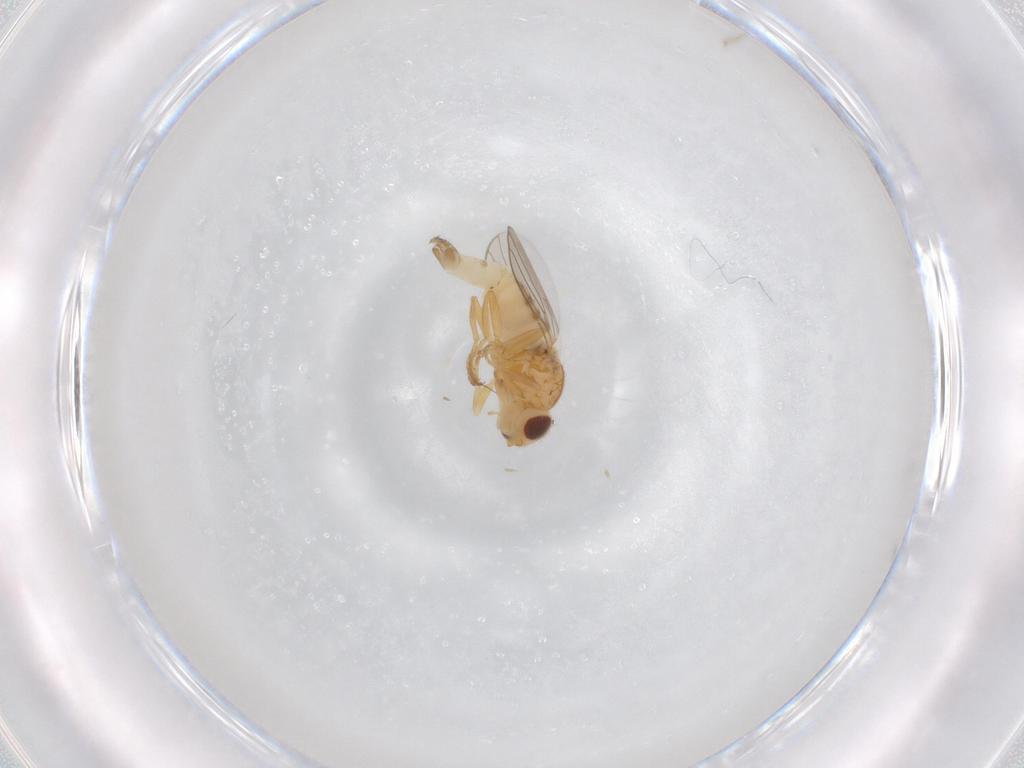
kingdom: Animalia
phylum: Arthropoda
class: Insecta
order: Diptera
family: Chloropidae
